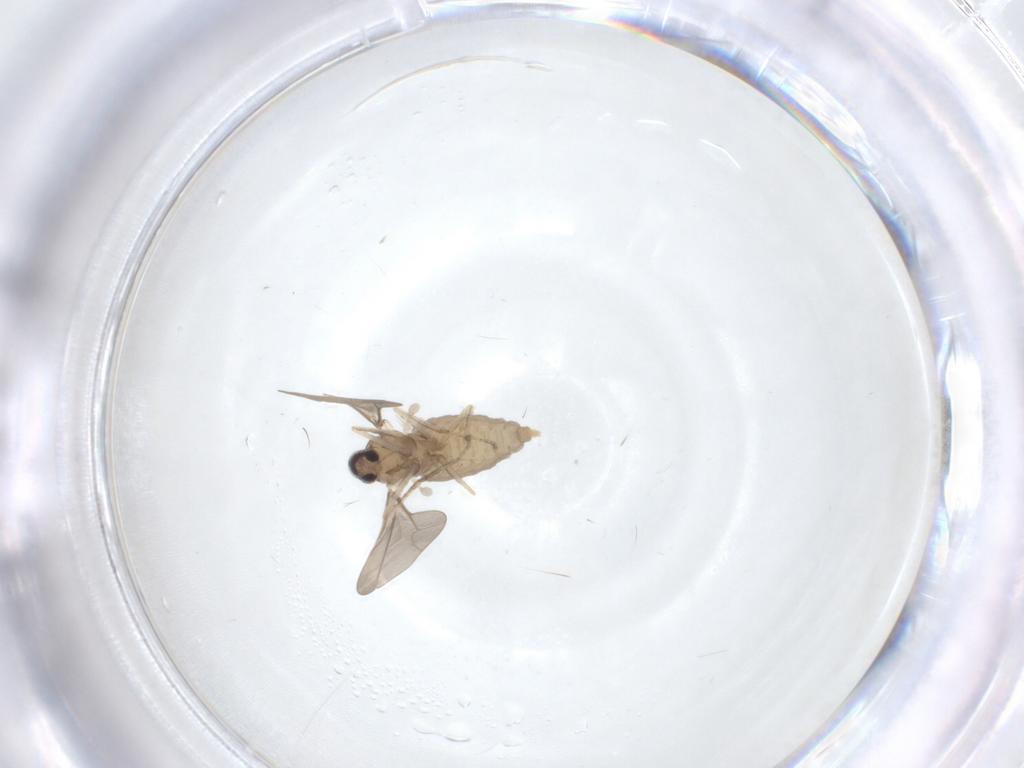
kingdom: Animalia
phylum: Arthropoda
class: Insecta
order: Diptera
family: Cecidomyiidae
